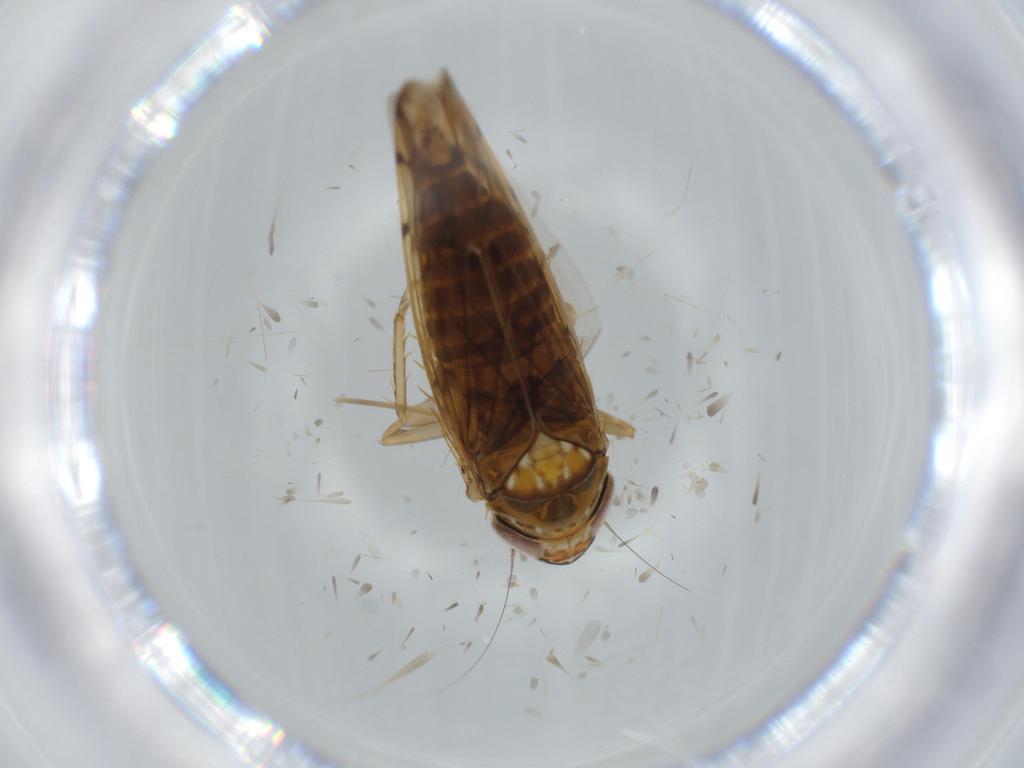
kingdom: Animalia
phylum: Arthropoda
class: Insecta
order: Hemiptera
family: Cicadellidae
